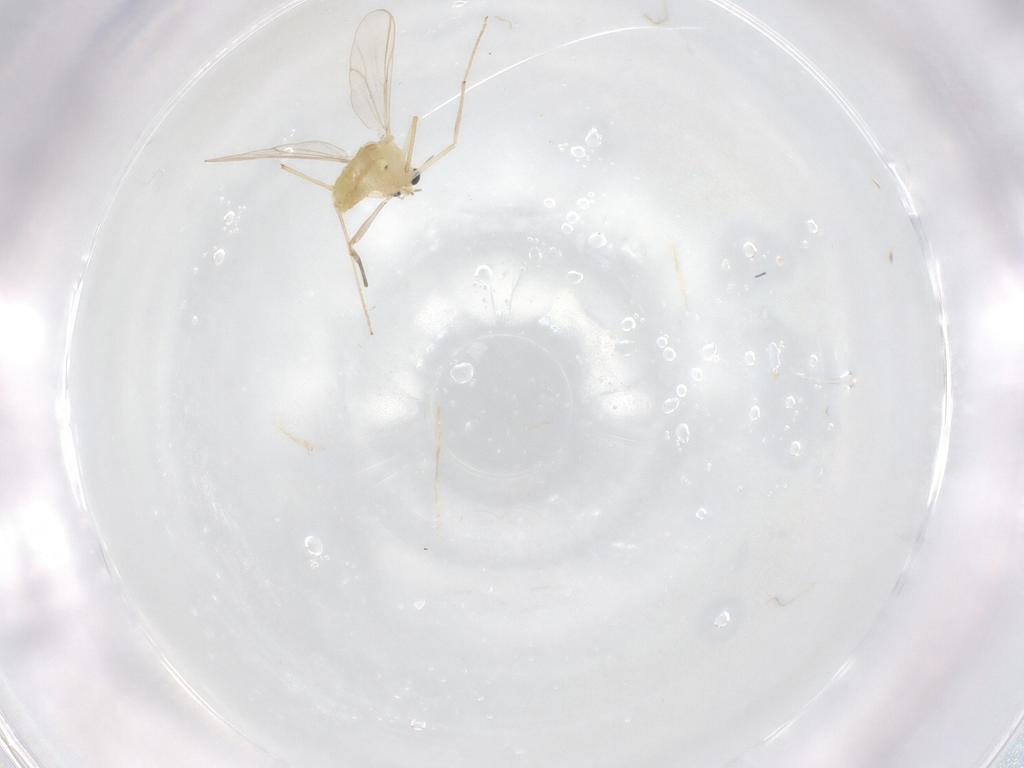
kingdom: Animalia
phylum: Arthropoda
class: Insecta
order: Diptera
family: Chironomidae
